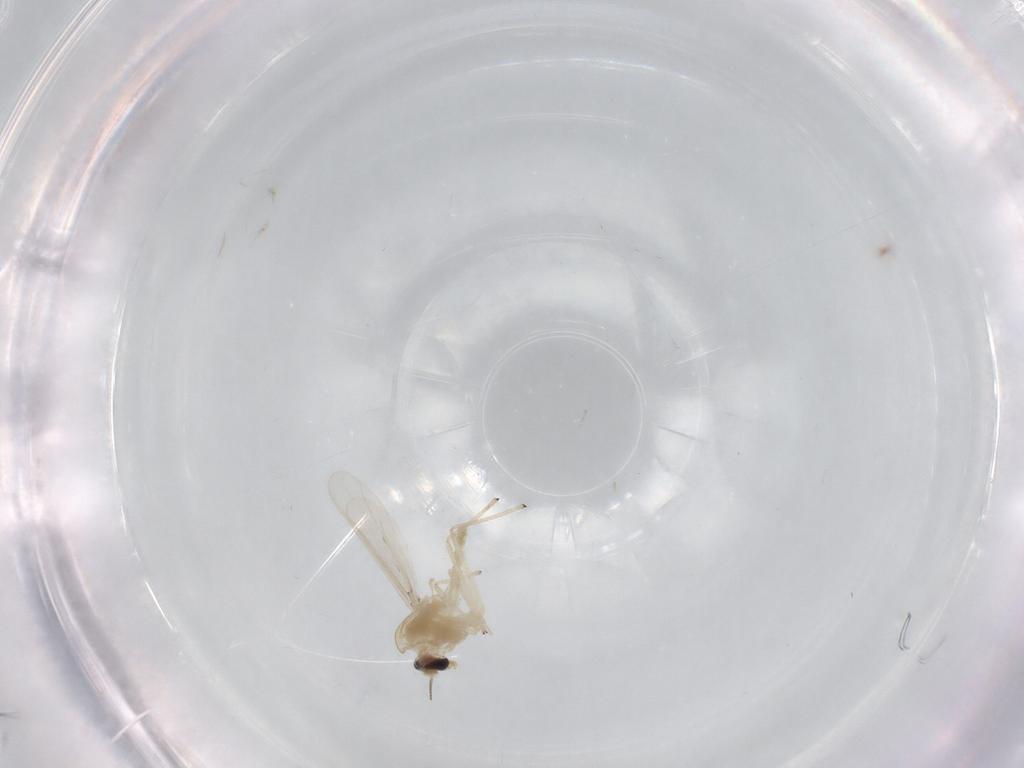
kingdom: Animalia
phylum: Arthropoda
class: Insecta
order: Diptera
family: Chironomidae
